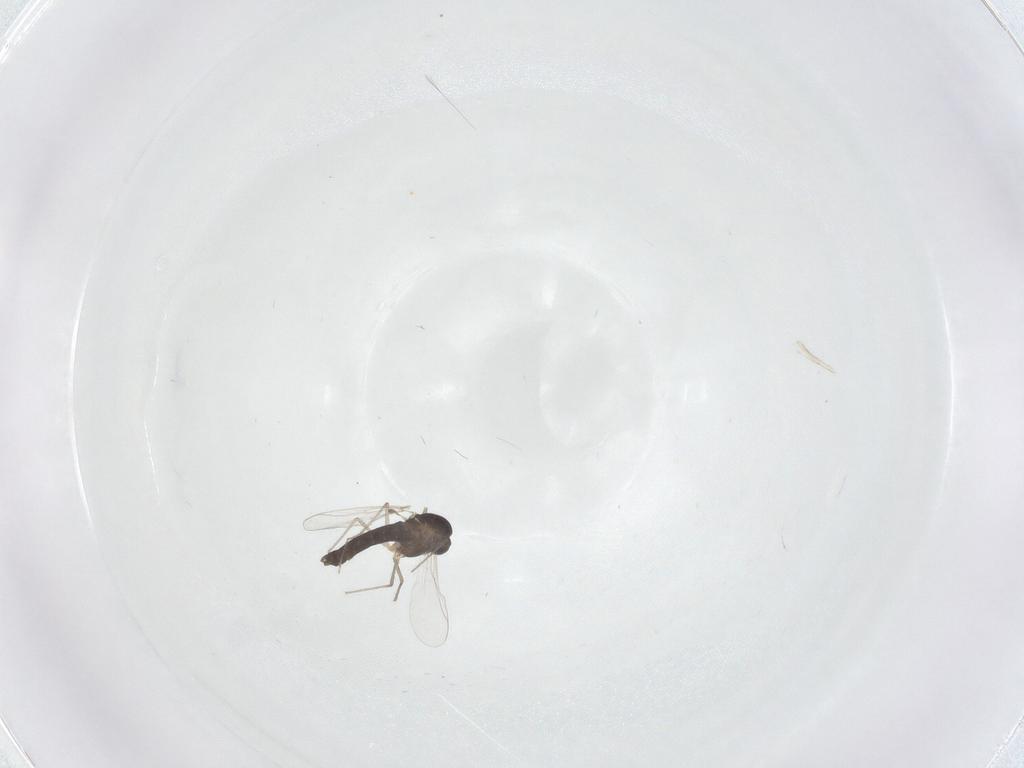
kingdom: Animalia
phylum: Arthropoda
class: Insecta
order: Diptera
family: Chironomidae
